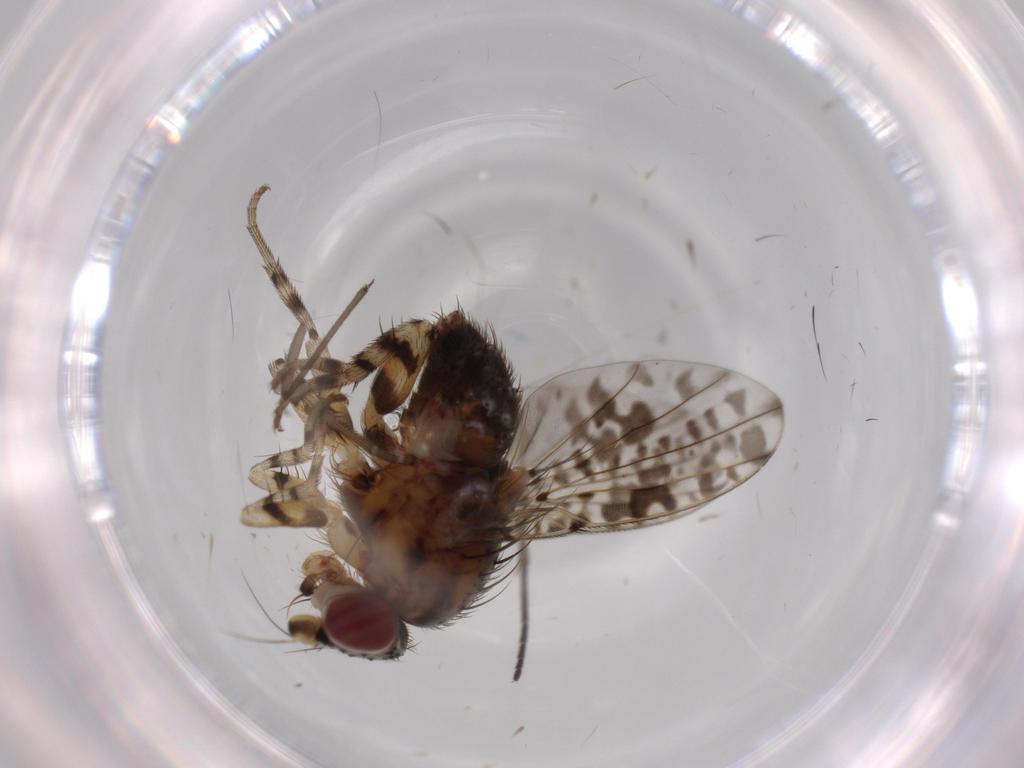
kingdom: Animalia
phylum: Arthropoda
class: Insecta
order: Diptera
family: Odiniidae
